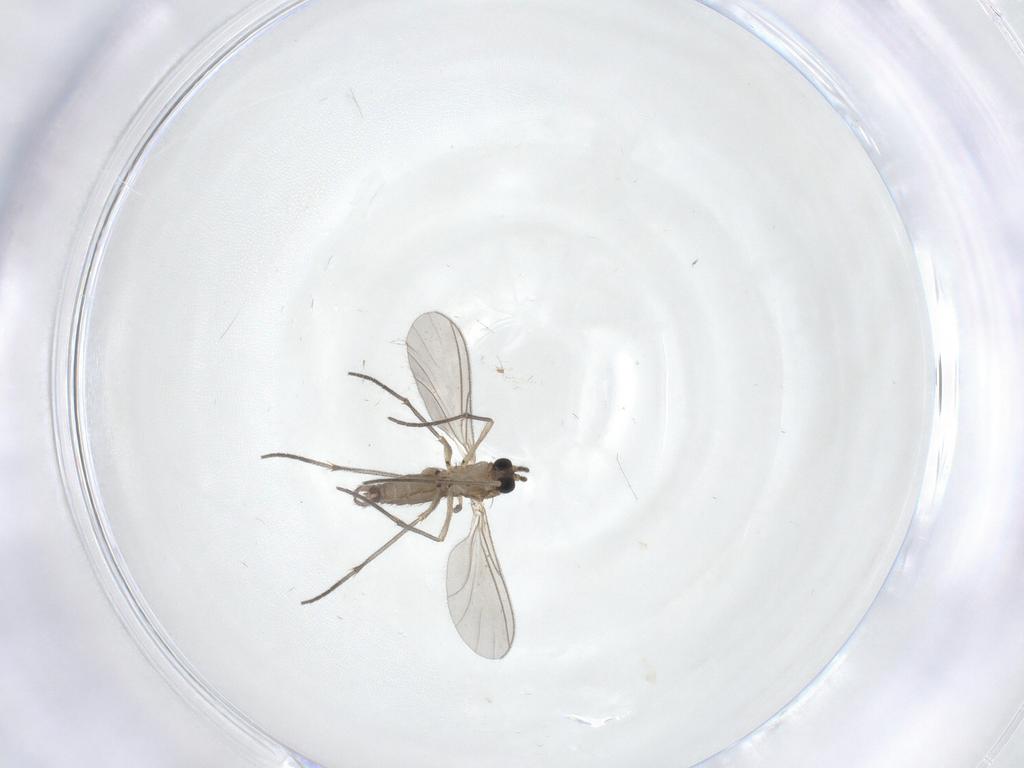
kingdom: Animalia
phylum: Arthropoda
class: Insecta
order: Diptera
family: Sciaridae
